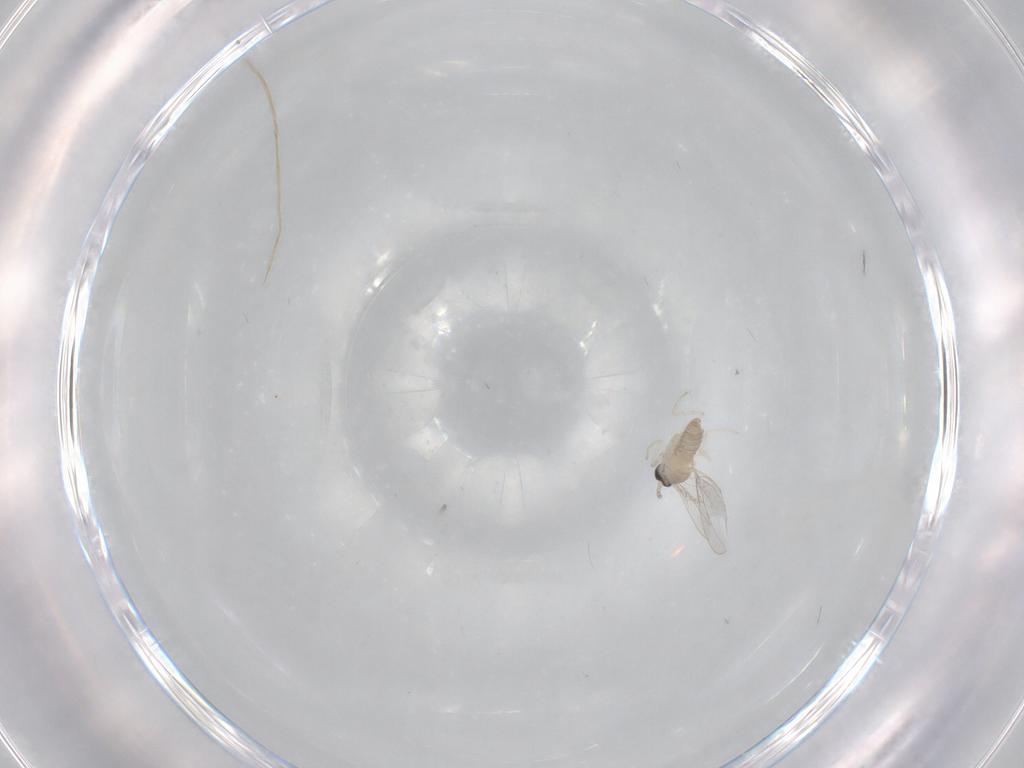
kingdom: Animalia
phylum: Arthropoda
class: Insecta
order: Diptera
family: Cecidomyiidae
